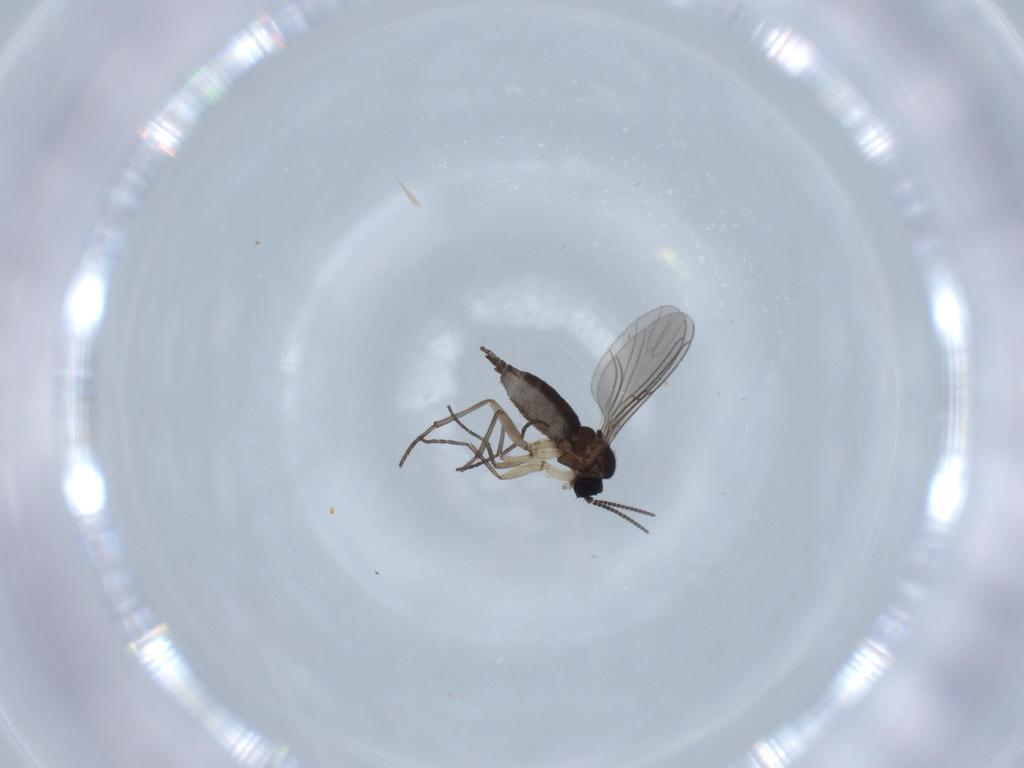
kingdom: Animalia
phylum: Arthropoda
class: Insecta
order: Diptera
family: Sciaridae
